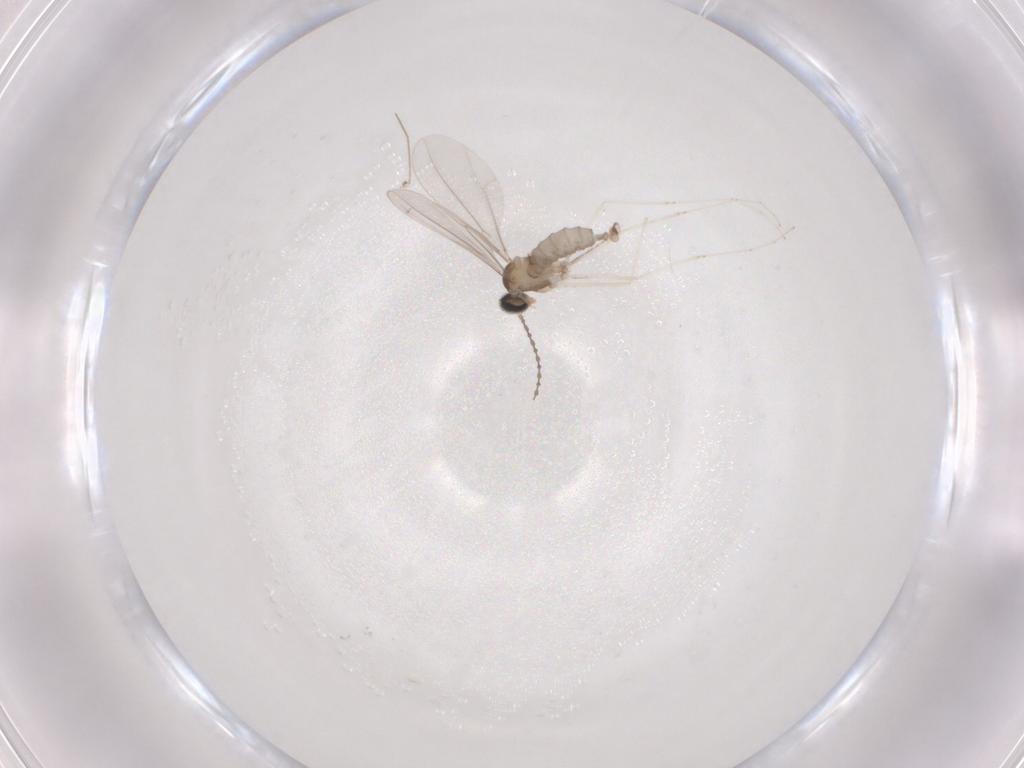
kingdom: Animalia
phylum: Arthropoda
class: Insecta
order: Diptera
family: Cecidomyiidae
